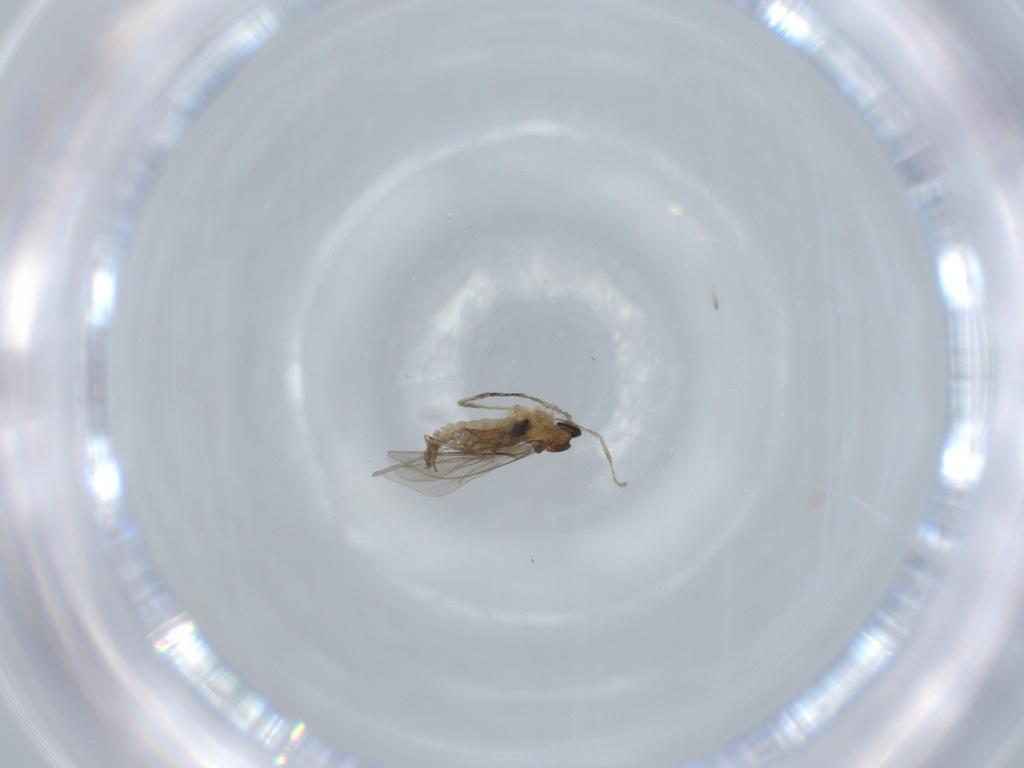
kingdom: Animalia
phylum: Arthropoda
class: Insecta
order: Diptera
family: Cecidomyiidae
